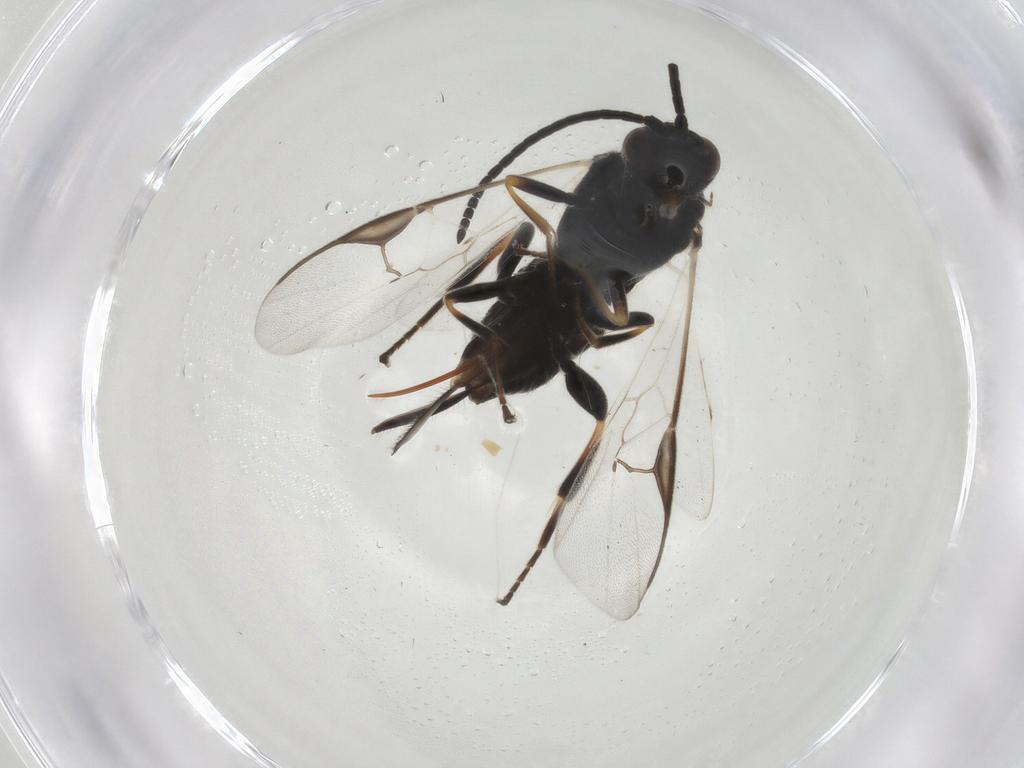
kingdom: Animalia
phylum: Arthropoda
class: Insecta
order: Hymenoptera
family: Braconidae
